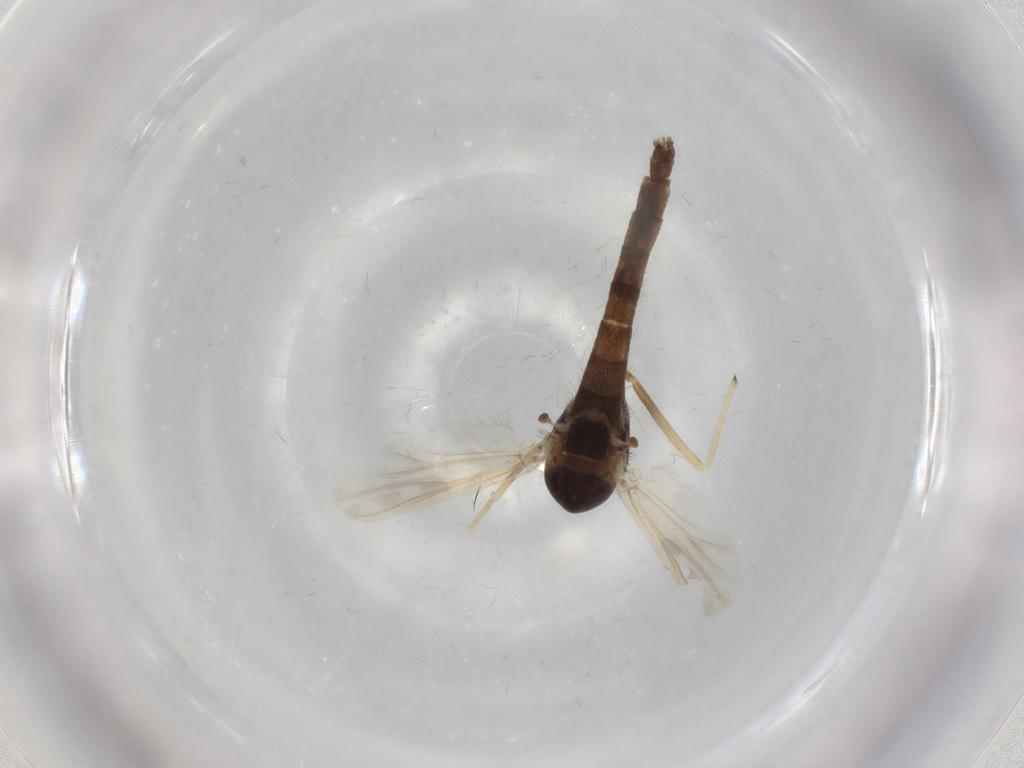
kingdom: Animalia
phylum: Arthropoda
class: Insecta
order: Diptera
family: Chironomidae
